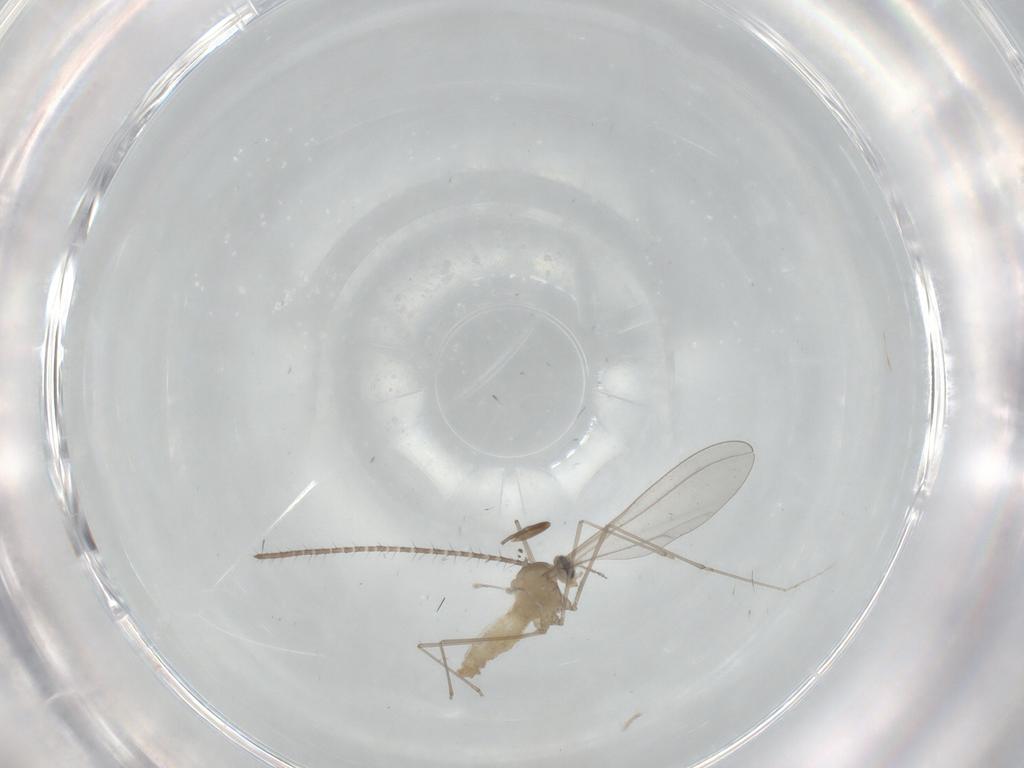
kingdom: Animalia
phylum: Arthropoda
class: Insecta
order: Diptera
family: Cecidomyiidae
